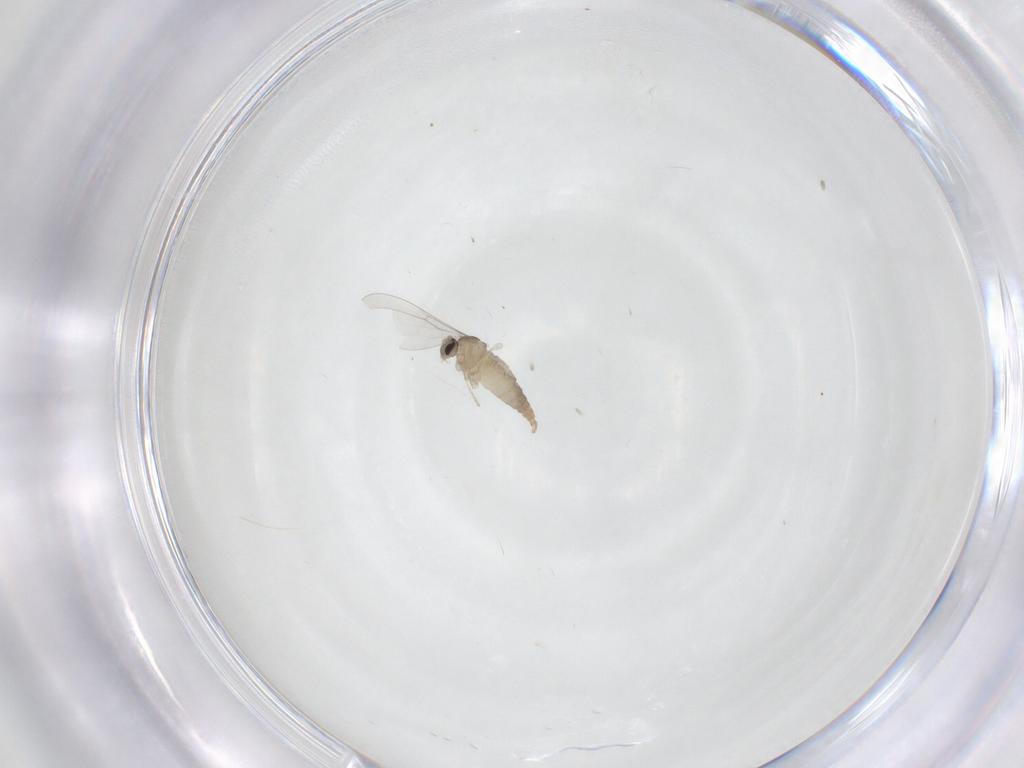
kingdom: Animalia
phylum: Arthropoda
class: Insecta
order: Diptera
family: Cecidomyiidae
